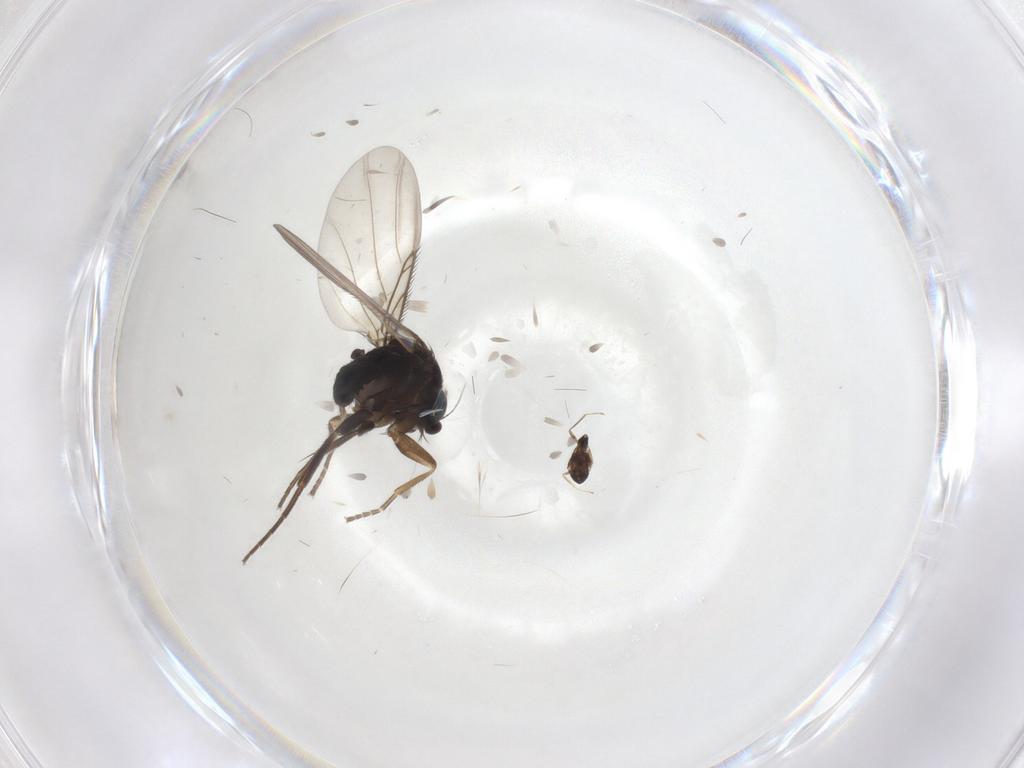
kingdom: Animalia
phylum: Arthropoda
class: Insecta
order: Diptera
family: Phoridae
